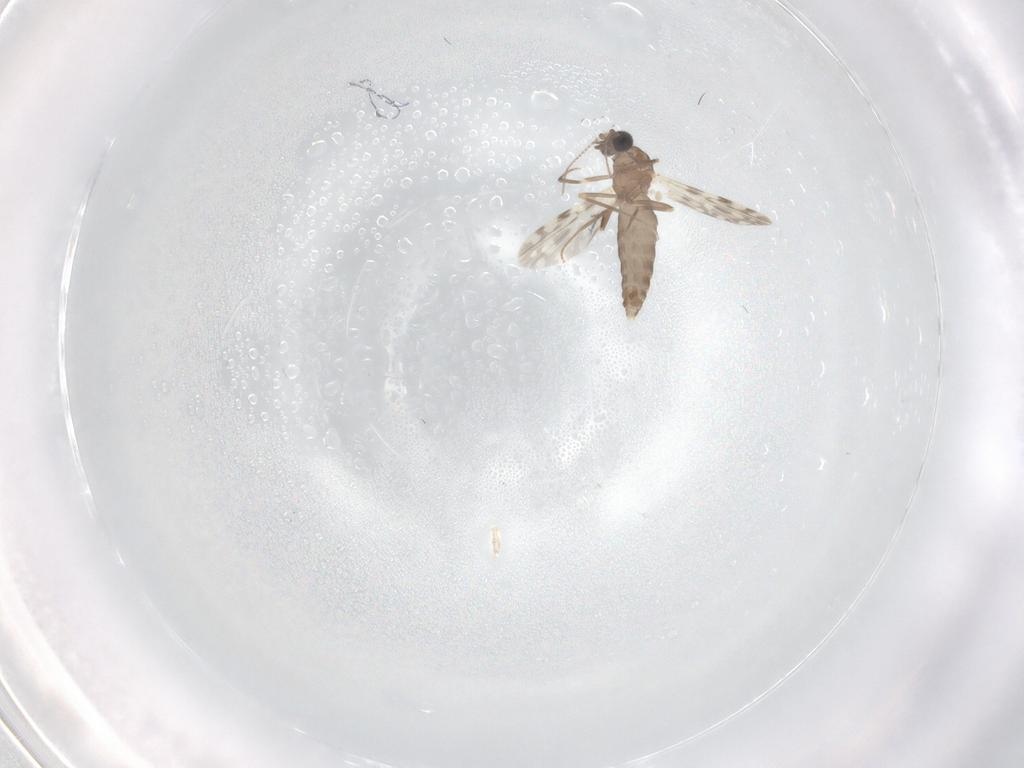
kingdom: Animalia
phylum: Arthropoda
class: Insecta
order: Diptera
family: Ceratopogonidae
